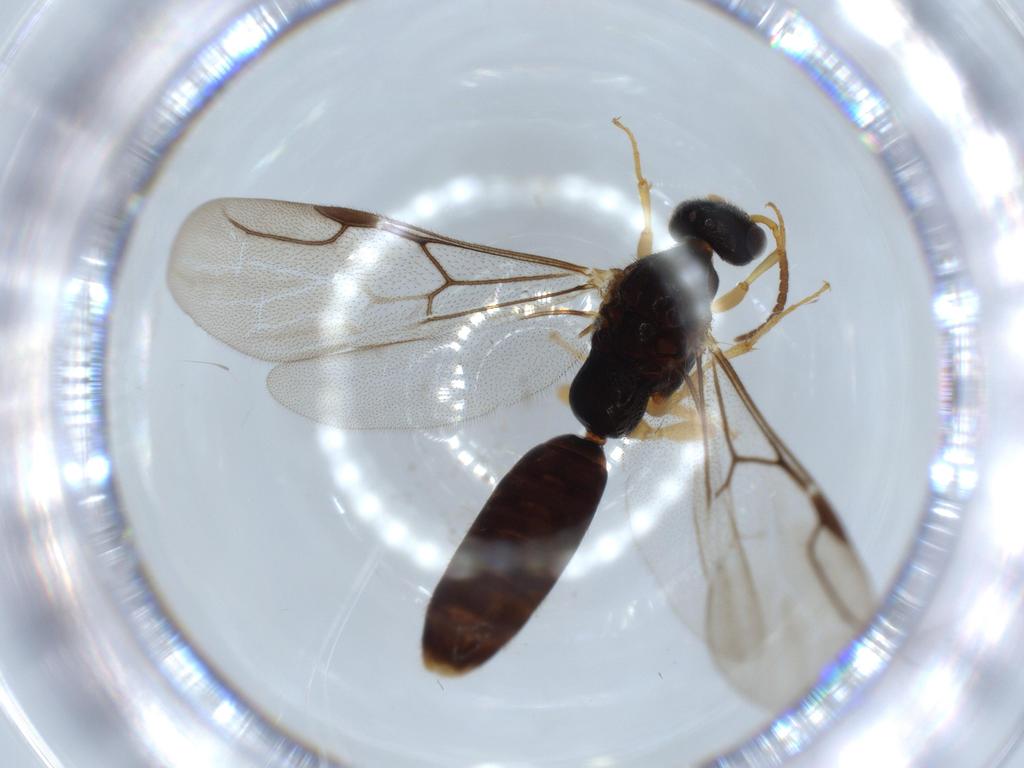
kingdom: Animalia
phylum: Arthropoda
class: Insecta
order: Hymenoptera
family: Bethylidae
